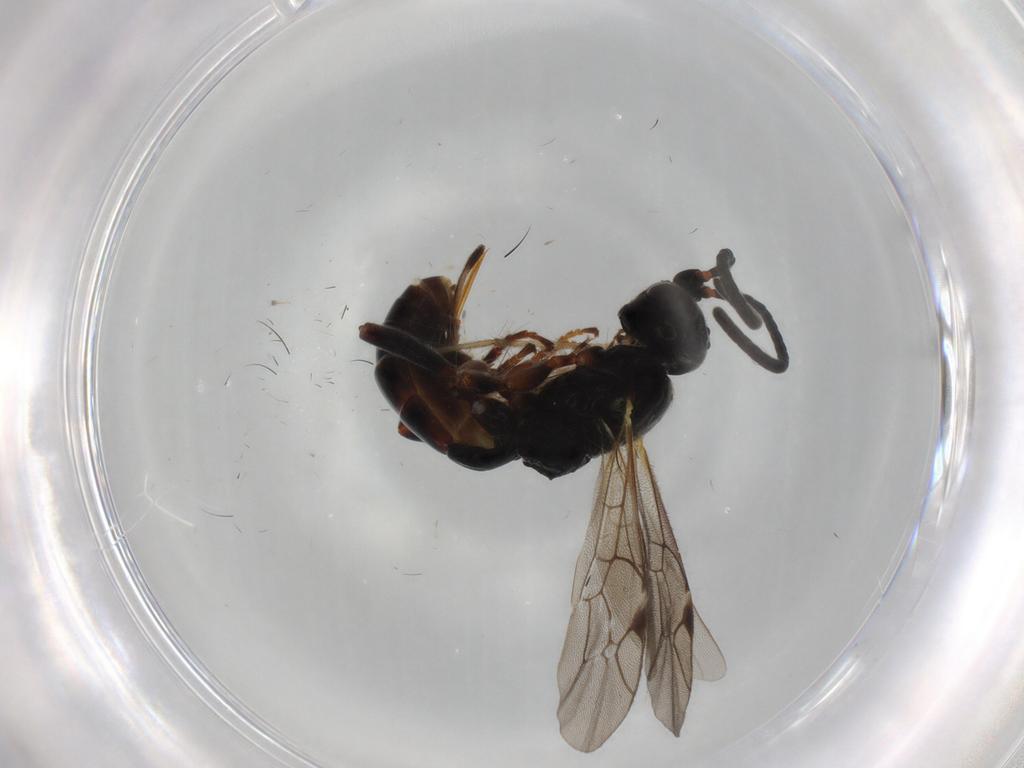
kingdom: Animalia
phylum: Arthropoda
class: Insecta
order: Hymenoptera
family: Ichneumonidae
